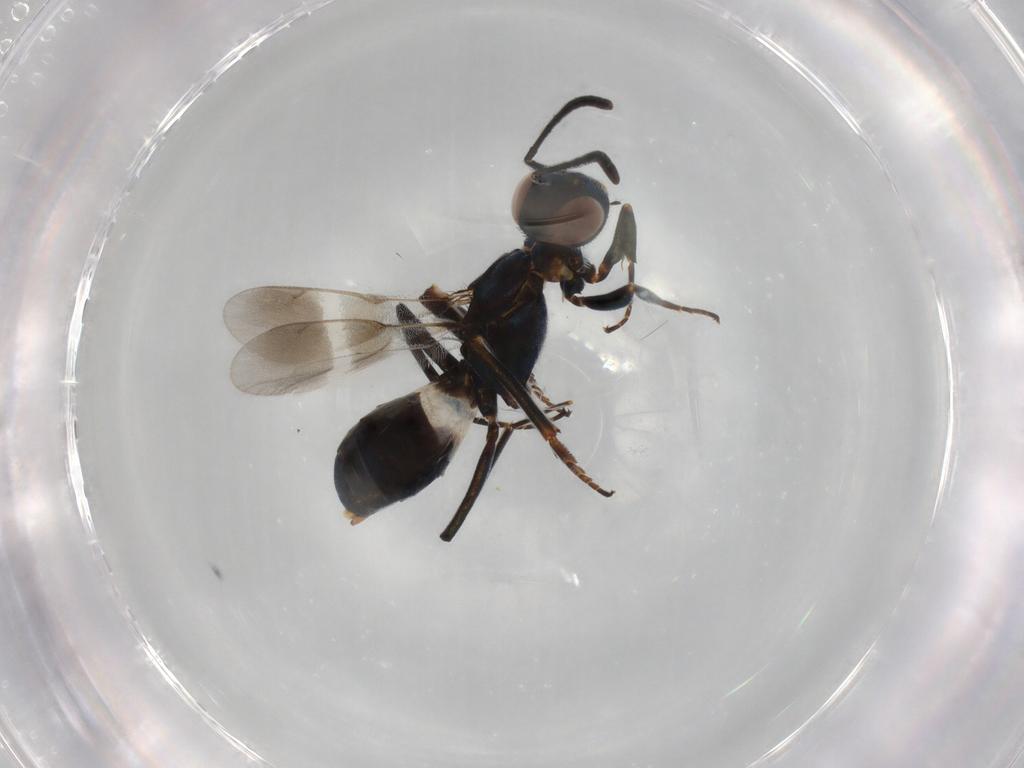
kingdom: Animalia
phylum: Arthropoda
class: Insecta
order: Hymenoptera
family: Eupelmidae
